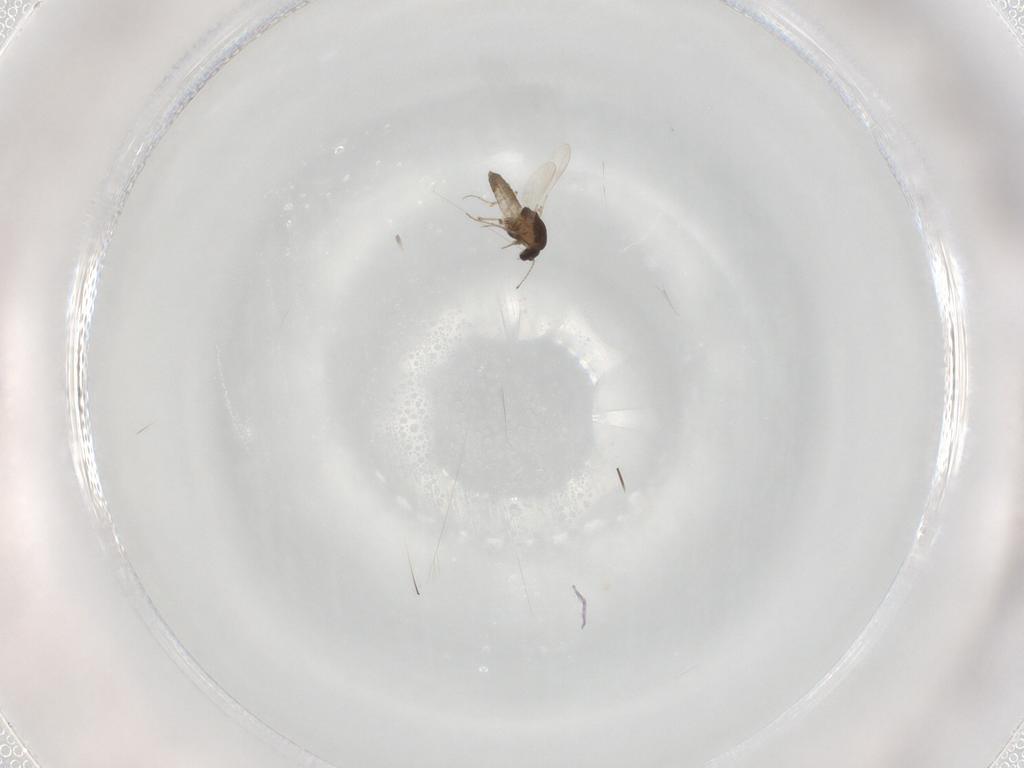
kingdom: Animalia
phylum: Arthropoda
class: Insecta
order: Diptera
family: Chironomidae
